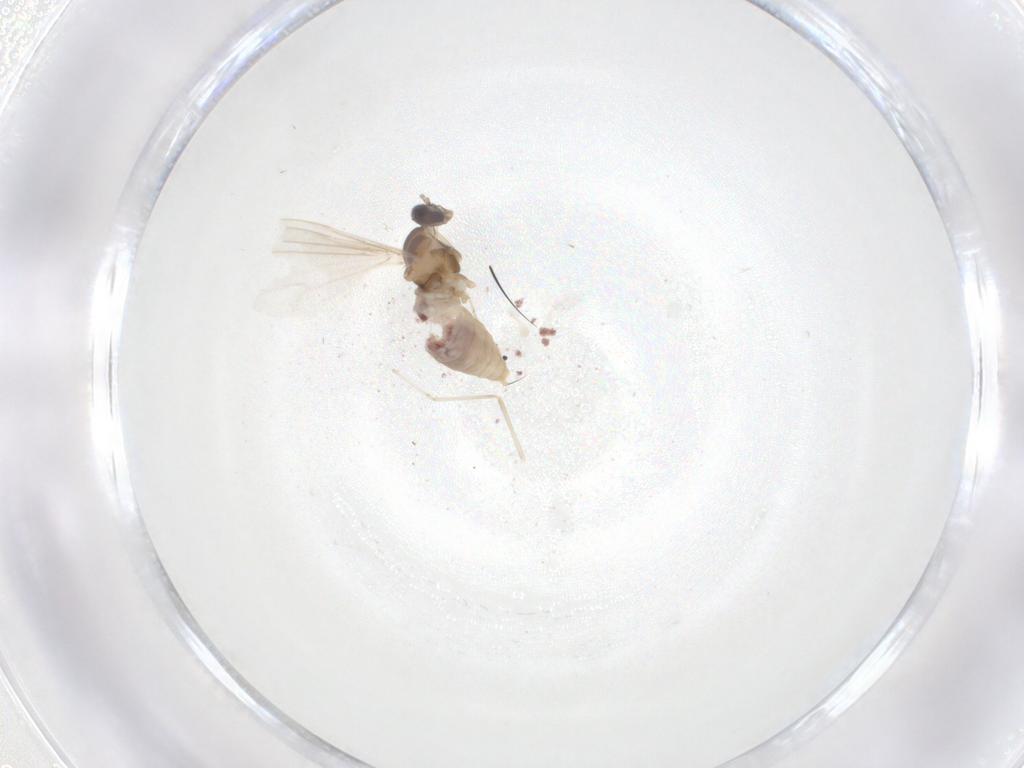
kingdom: Animalia
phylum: Arthropoda
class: Insecta
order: Diptera
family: Cecidomyiidae
